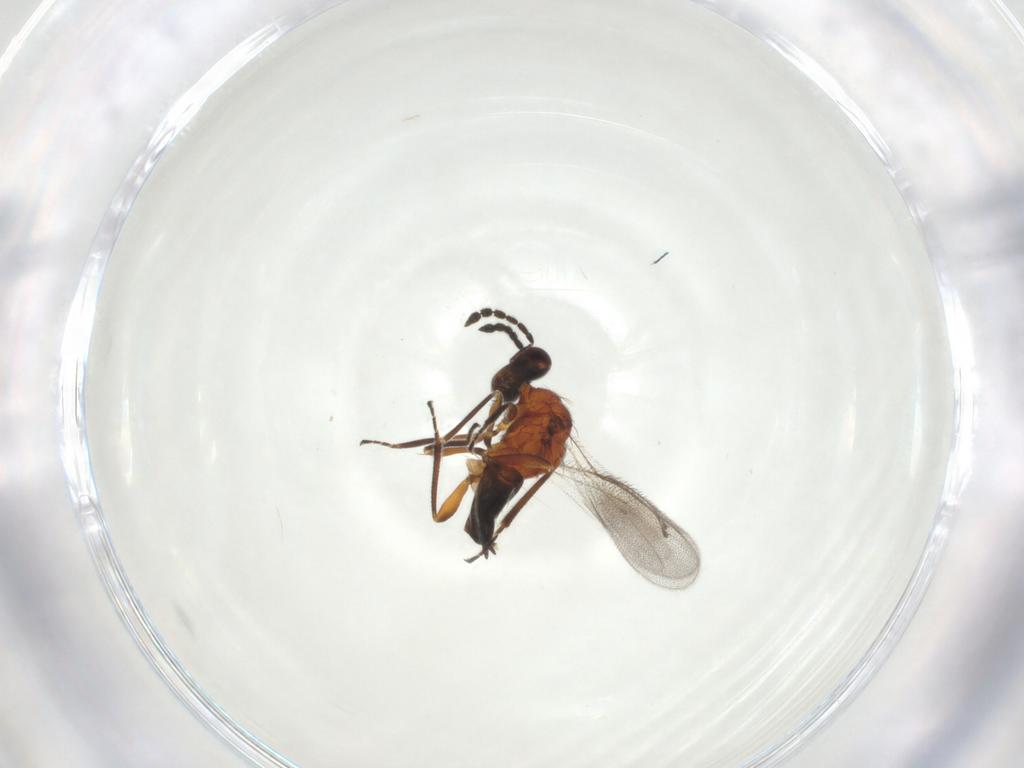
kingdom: Animalia
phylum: Arthropoda
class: Insecta
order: Hymenoptera
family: Eulophidae
